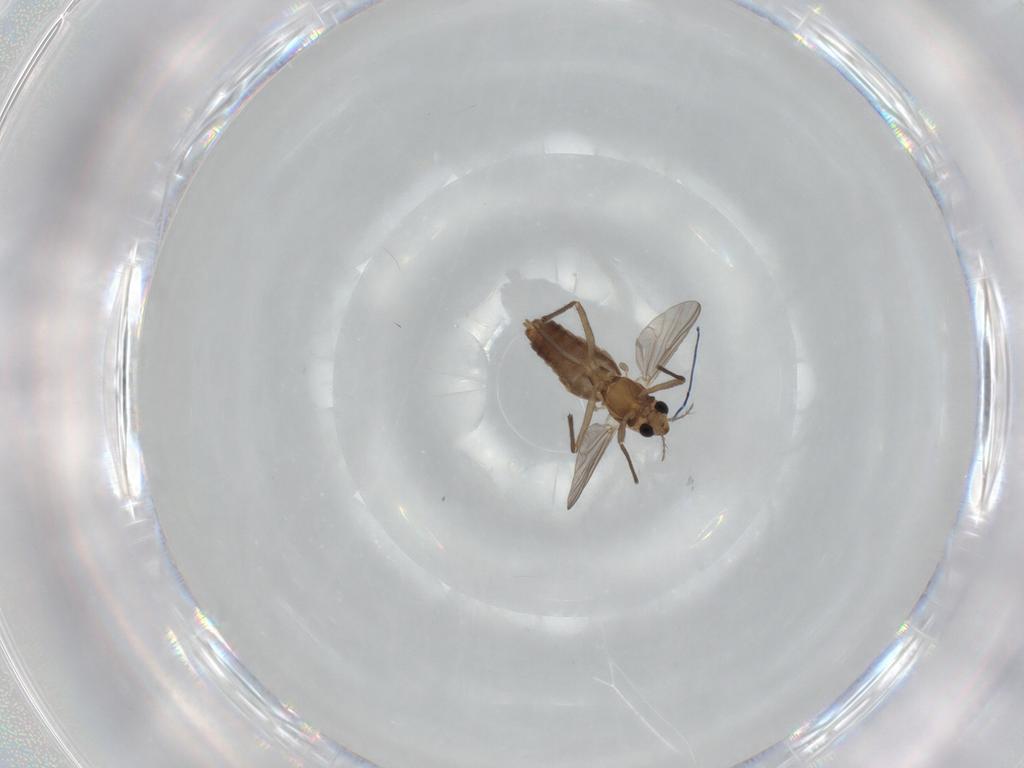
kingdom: Animalia
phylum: Arthropoda
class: Insecta
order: Diptera
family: Chironomidae
